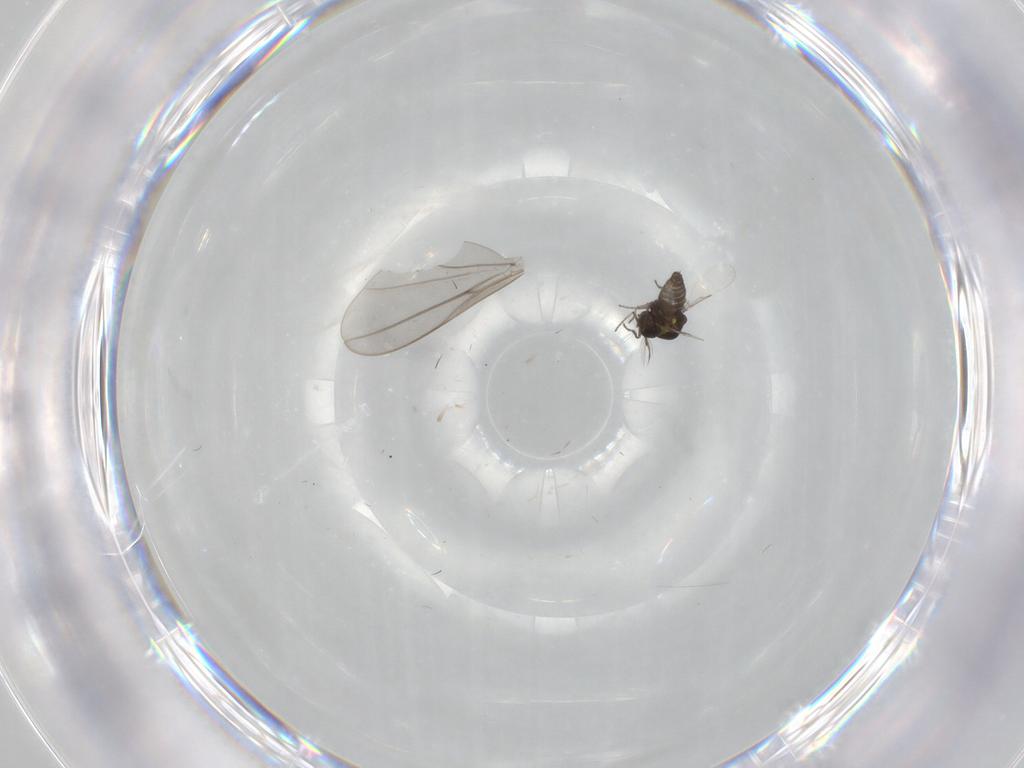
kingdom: Animalia
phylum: Arthropoda
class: Insecta
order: Diptera
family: Ceratopogonidae
